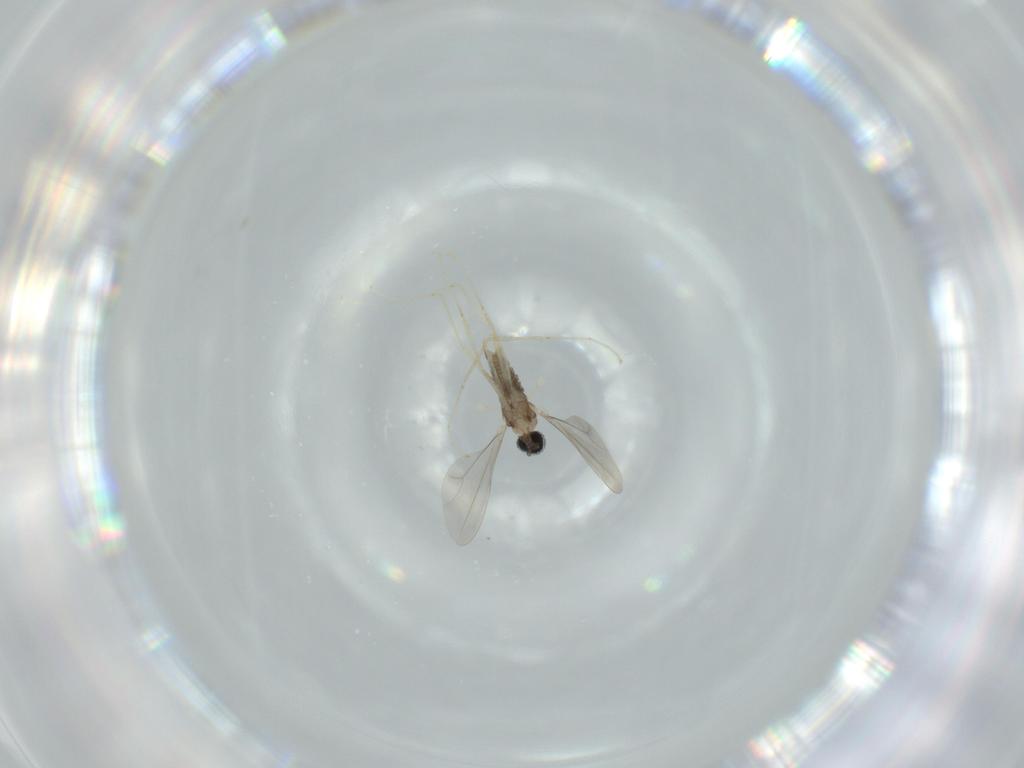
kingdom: Animalia
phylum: Arthropoda
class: Insecta
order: Diptera
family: Cecidomyiidae
